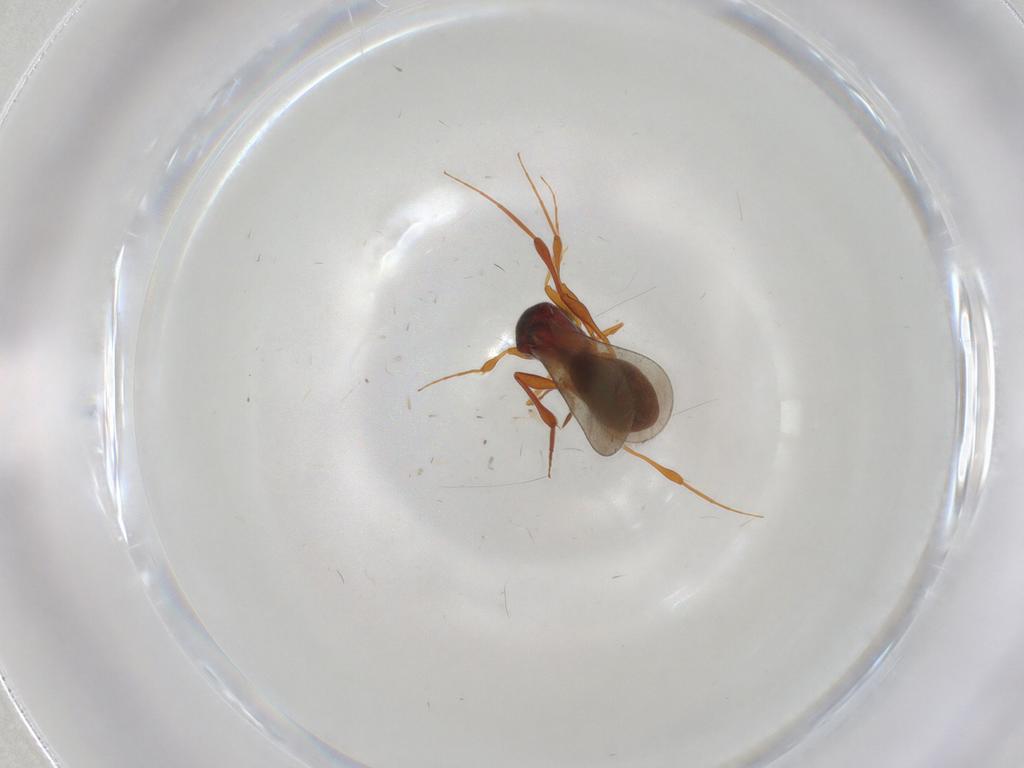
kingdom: Animalia
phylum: Arthropoda
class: Insecta
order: Hymenoptera
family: Platygastridae
